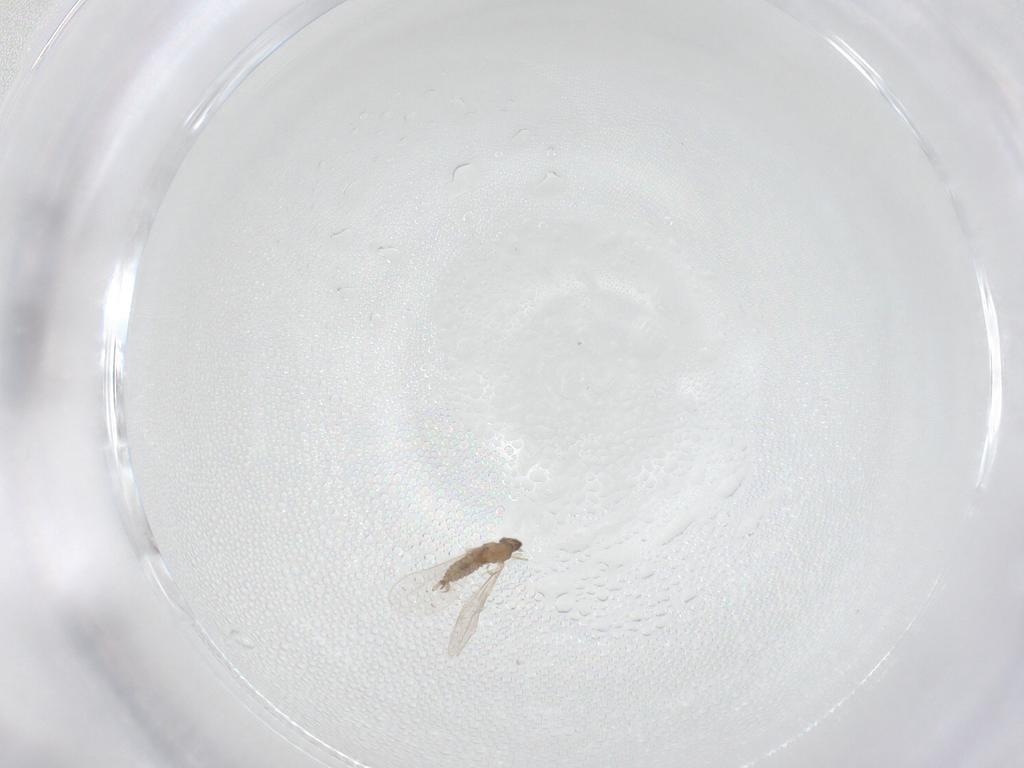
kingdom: Animalia
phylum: Arthropoda
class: Insecta
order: Diptera
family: Cecidomyiidae
